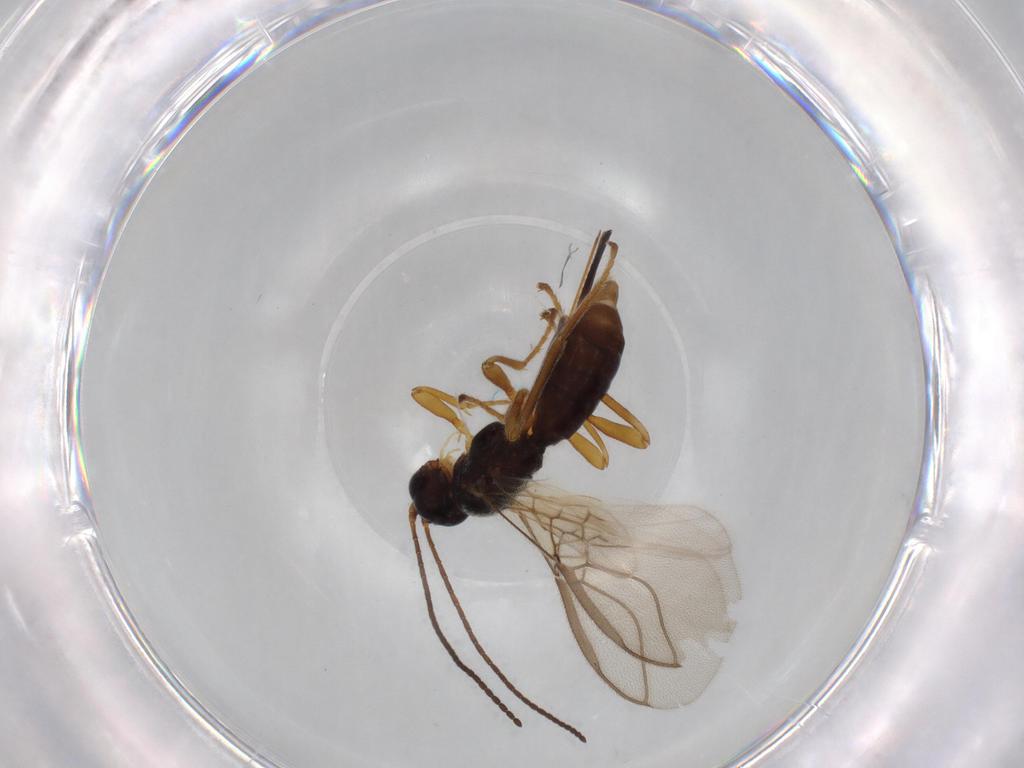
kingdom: Animalia
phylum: Arthropoda
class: Insecta
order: Hymenoptera
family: Braconidae
